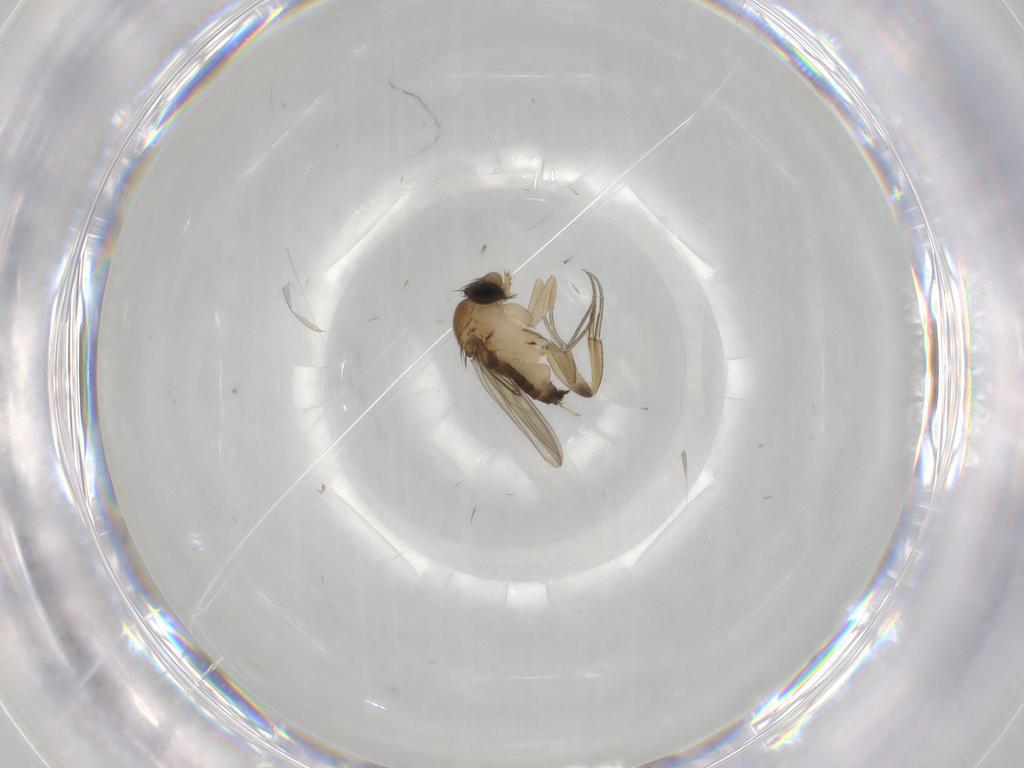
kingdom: Animalia
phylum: Arthropoda
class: Insecta
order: Diptera
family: Phoridae
